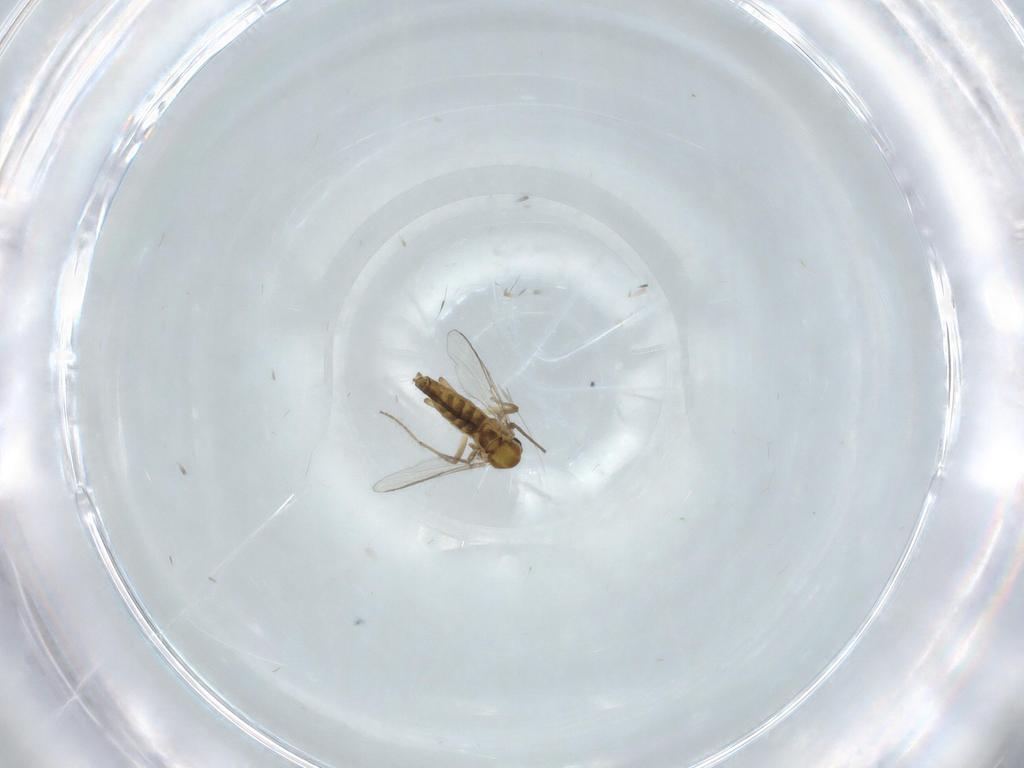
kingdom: Animalia
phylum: Arthropoda
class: Insecta
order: Diptera
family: Chironomidae
